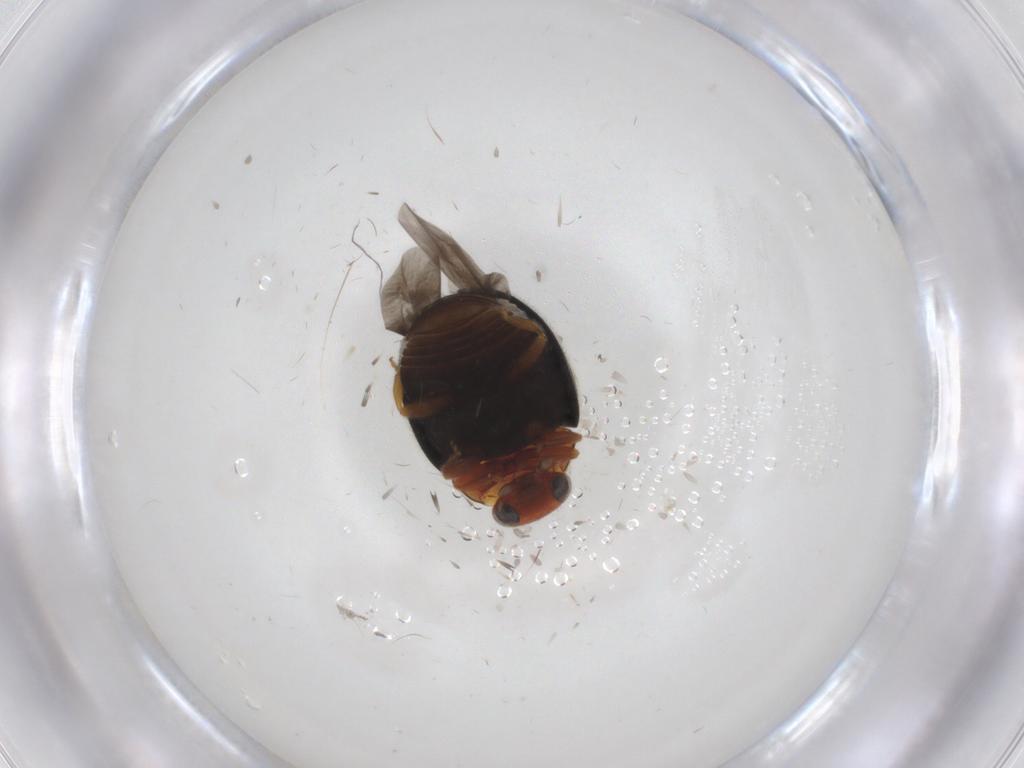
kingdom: Animalia
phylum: Arthropoda
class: Insecta
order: Coleoptera
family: Coccinellidae
